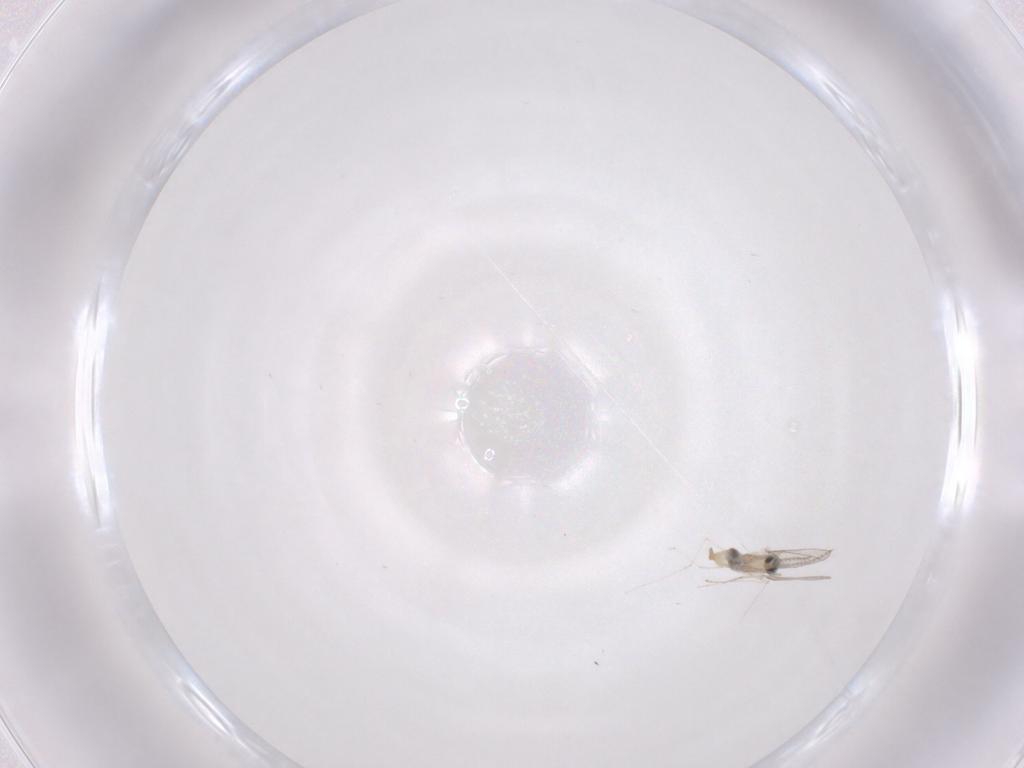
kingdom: Animalia
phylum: Arthropoda
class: Insecta
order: Diptera
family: Cecidomyiidae
